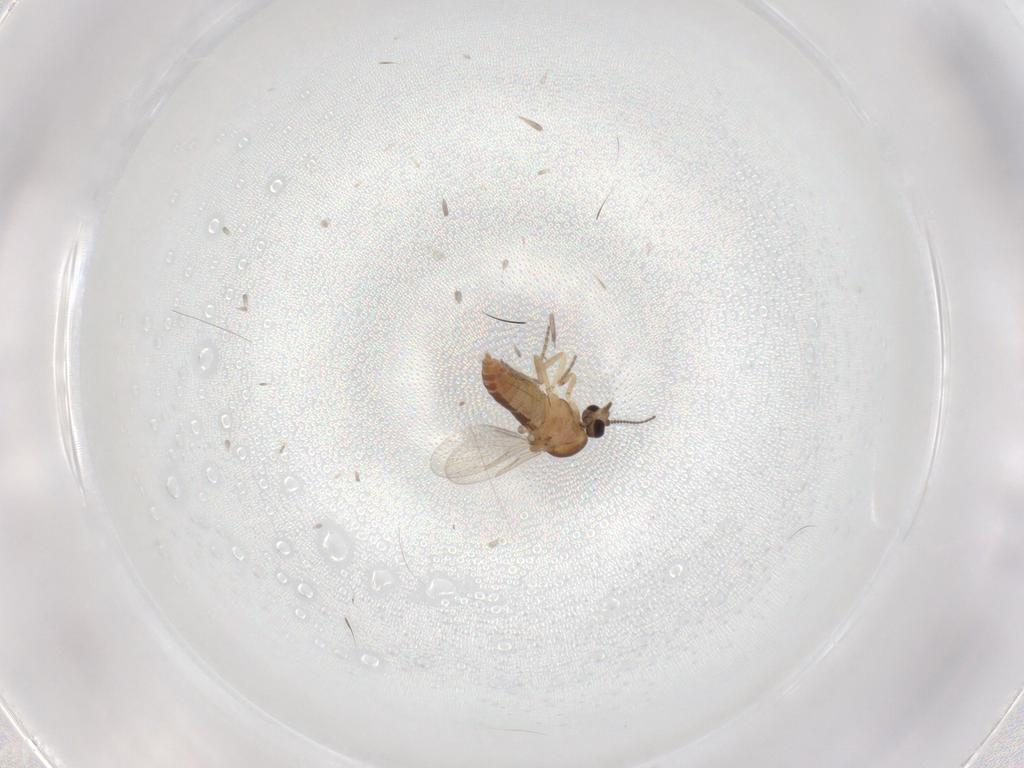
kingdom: Animalia
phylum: Arthropoda
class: Insecta
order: Diptera
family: Ceratopogonidae
